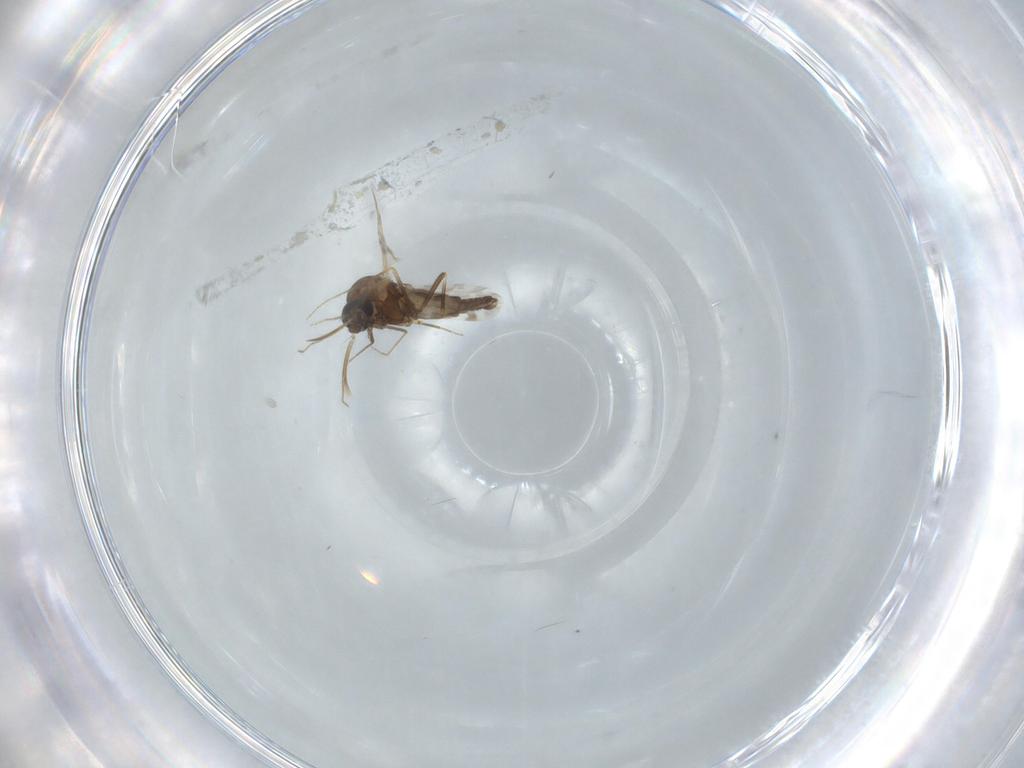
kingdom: Animalia
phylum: Arthropoda
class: Insecta
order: Diptera
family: Ceratopogonidae
